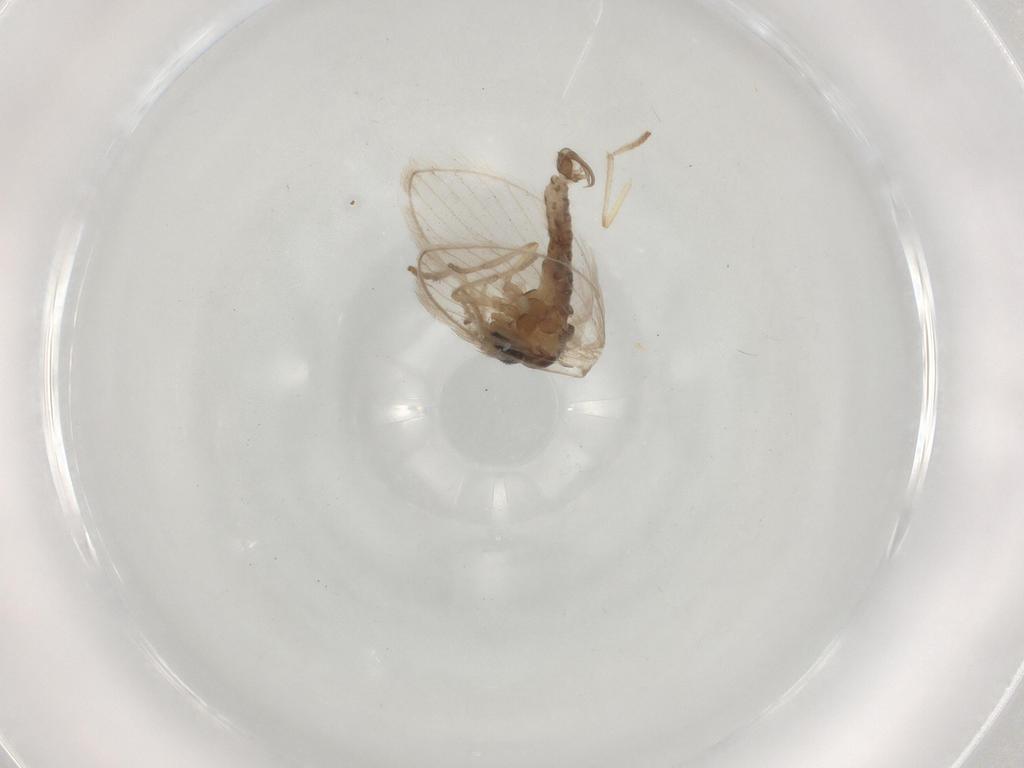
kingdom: Animalia
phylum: Arthropoda
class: Insecta
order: Diptera
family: Psychodidae
